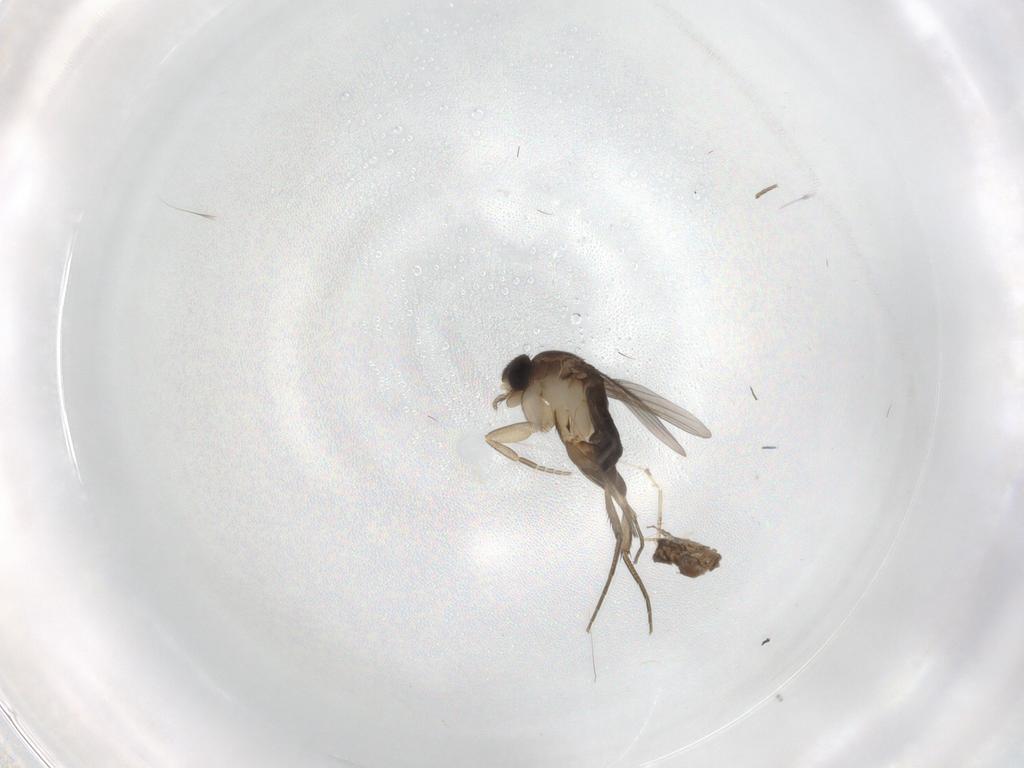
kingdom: Animalia
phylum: Arthropoda
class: Insecta
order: Diptera
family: Cecidomyiidae
